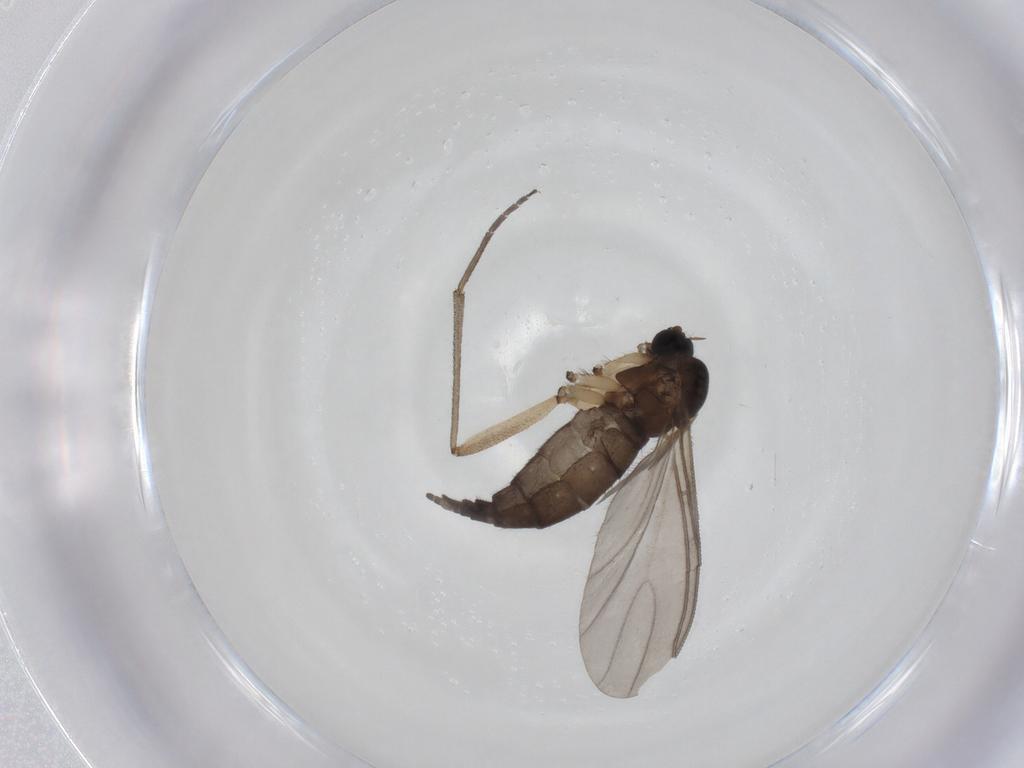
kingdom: Animalia
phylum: Arthropoda
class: Insecta
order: Diptera
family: Sciaridae
